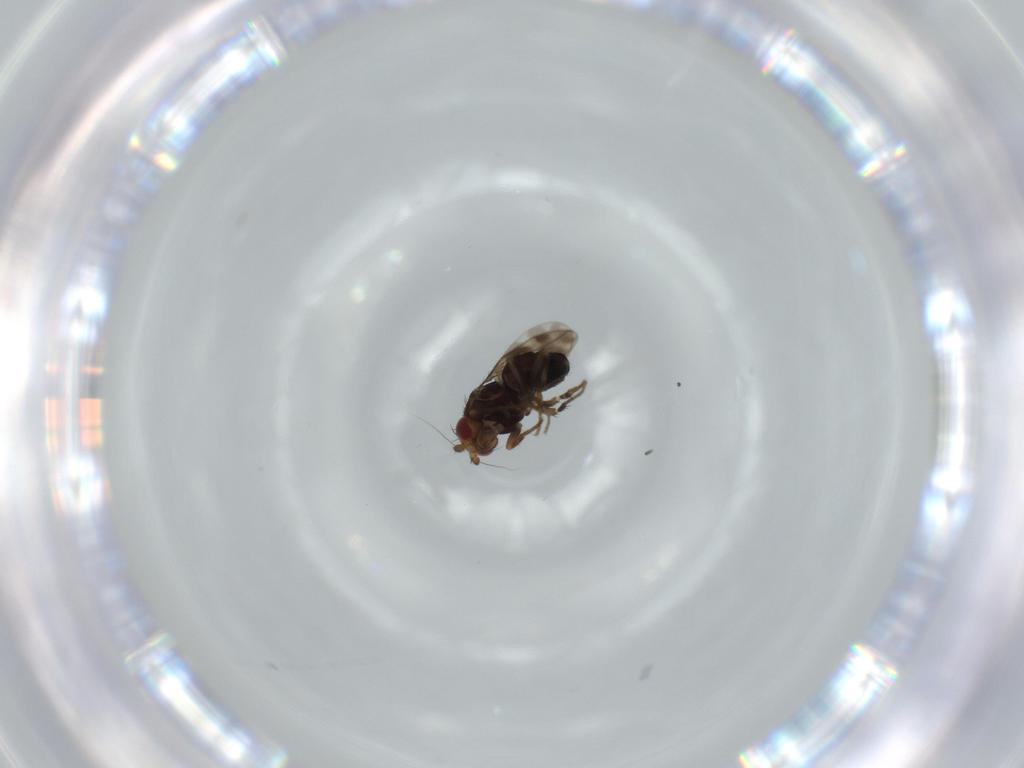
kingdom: Animalia
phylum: Arthropoda
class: Insecta
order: Diptera
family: Sphaeroceridae
